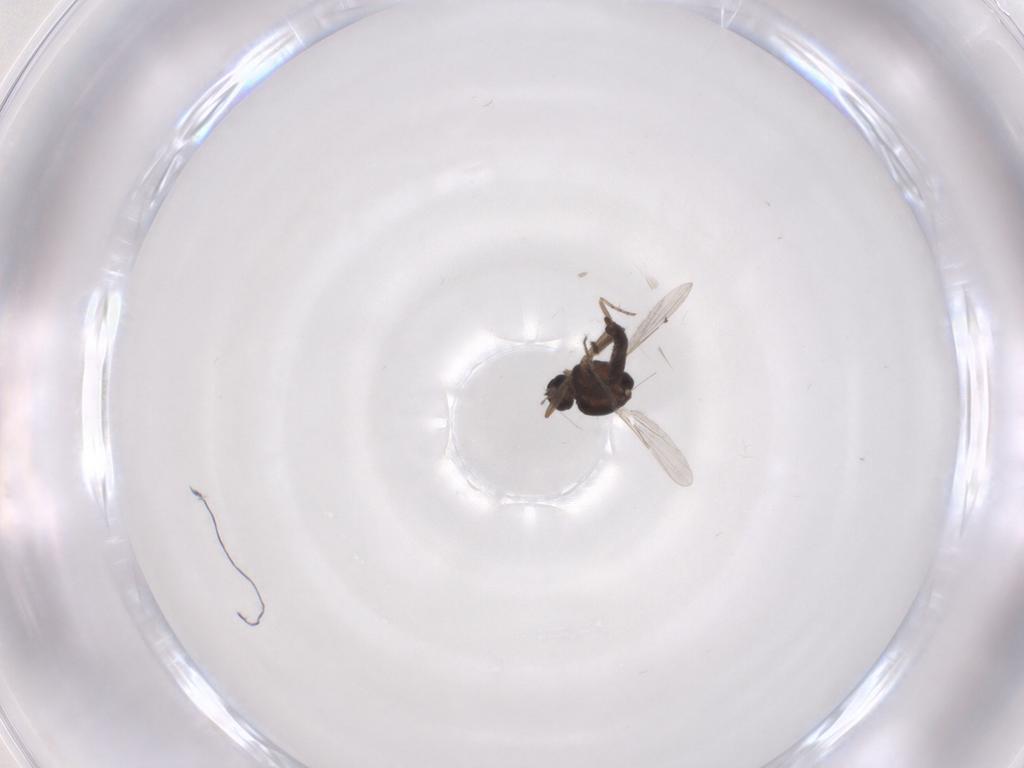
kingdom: Animalia
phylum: Arthropoda
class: Insecta
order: Diptera
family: Ceratopogonidae
